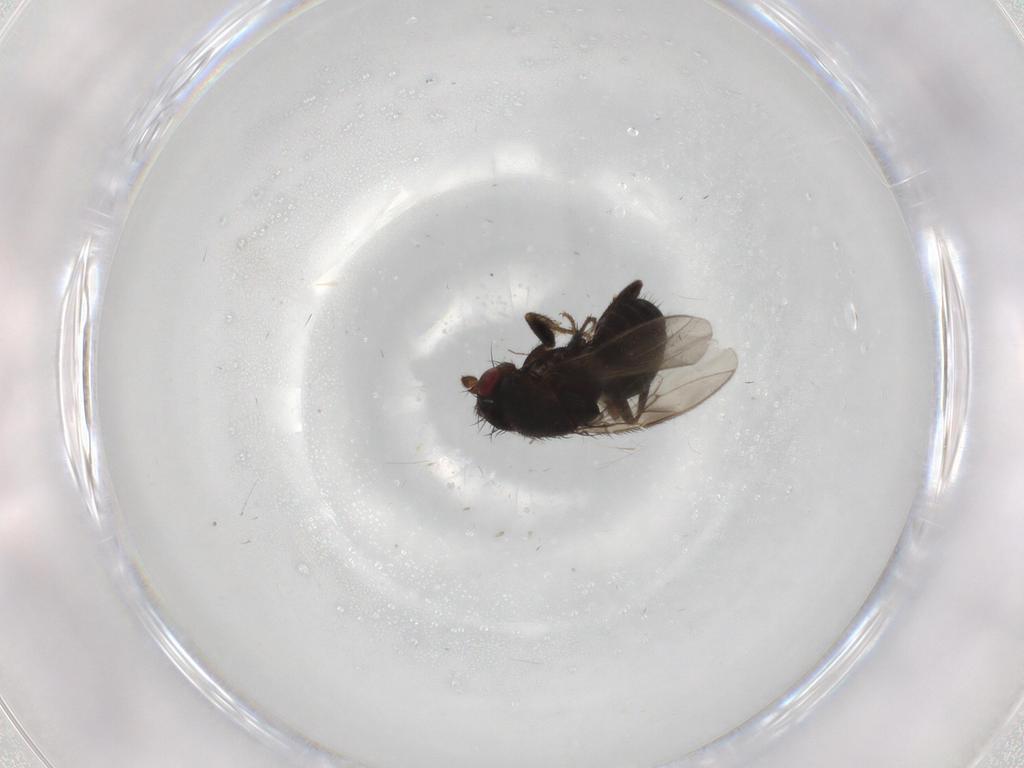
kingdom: Animalia
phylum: Arthropoda
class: Insecta
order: Diptera
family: Sphaeroceridae
